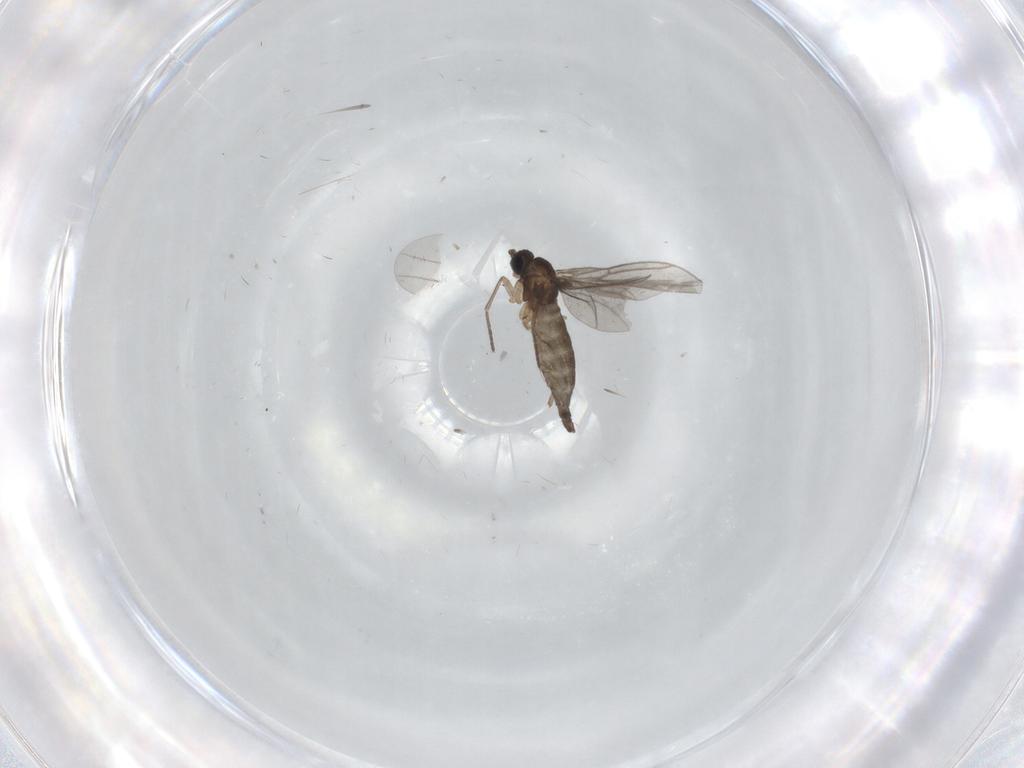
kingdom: Animalia
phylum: Arthropoda
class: Insecta
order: Diptera
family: Sciaridae
